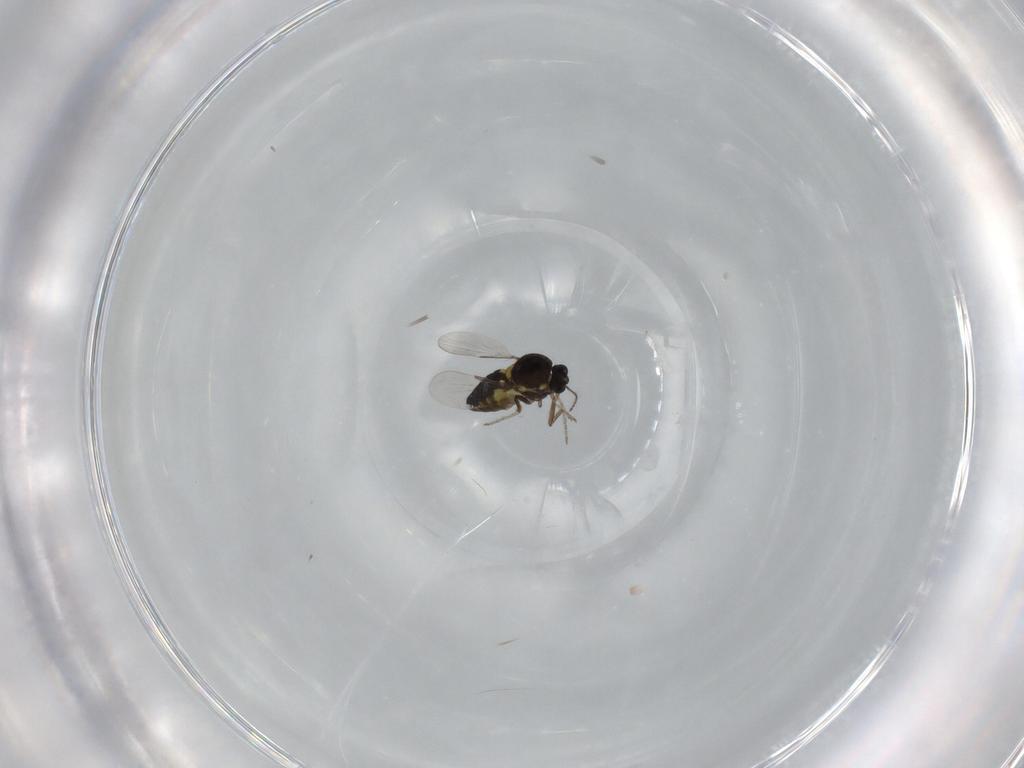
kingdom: Animalia
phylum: Arthropoda
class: Insecta
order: Diptera
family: Ceratopogonidae
